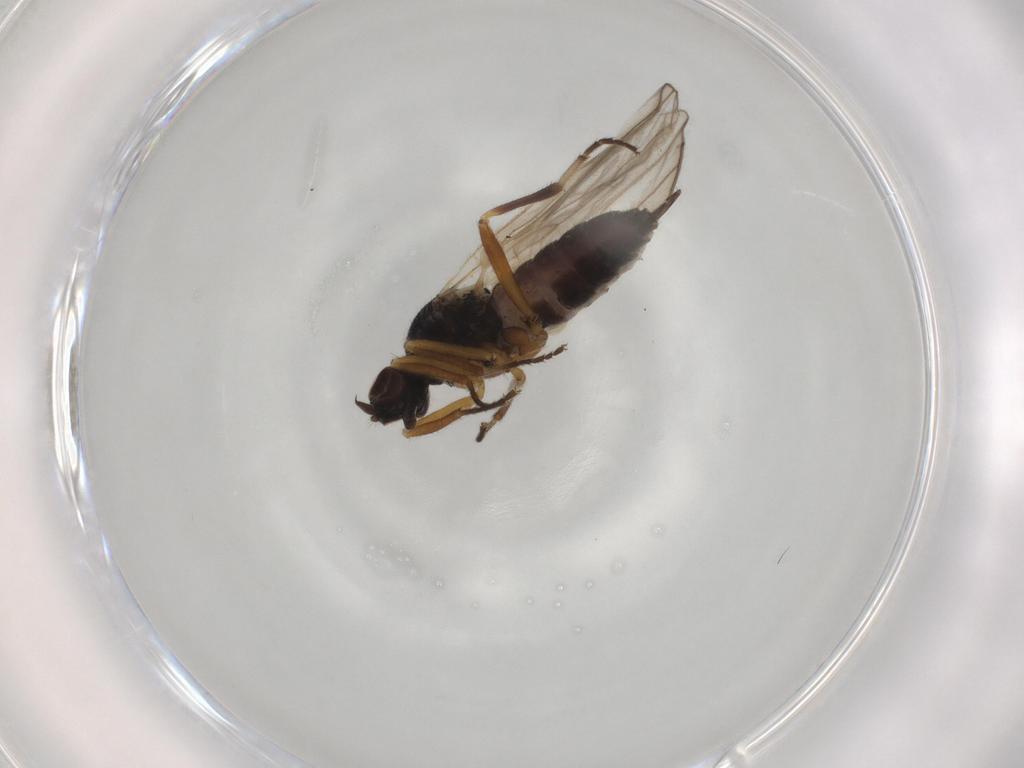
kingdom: Animalia
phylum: Arthropoda
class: Insecta
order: Diptera
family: Hybotidae
